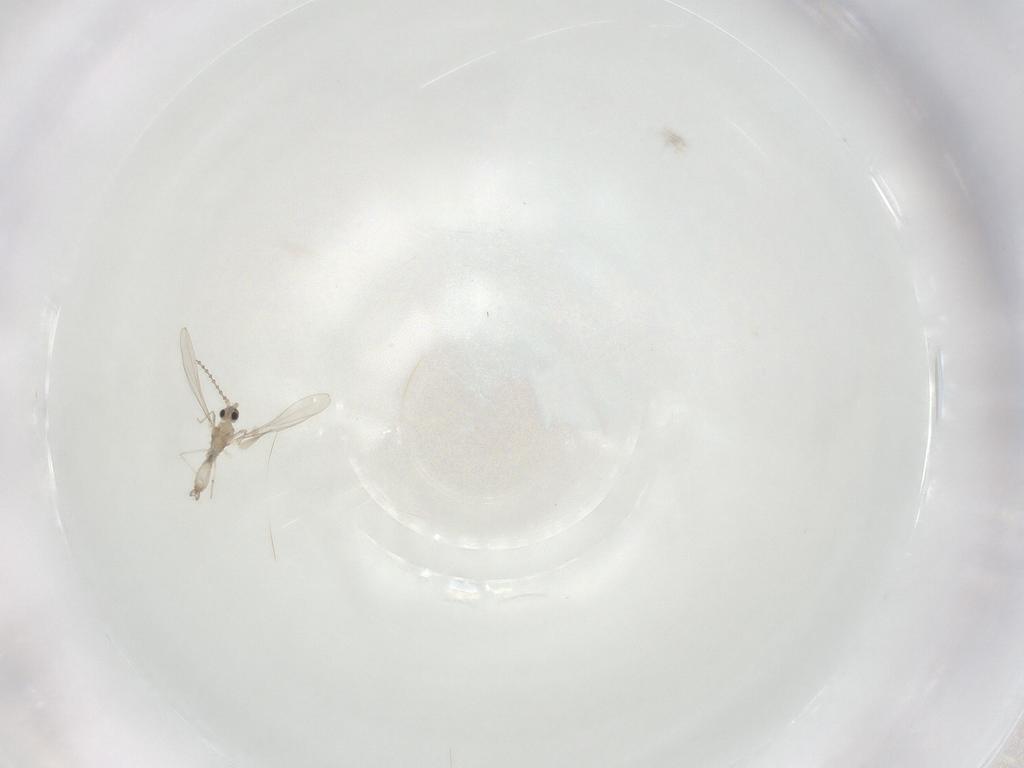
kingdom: Animalia
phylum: Arthropoda
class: Insecta
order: Diptera
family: Cecidomyiidae
